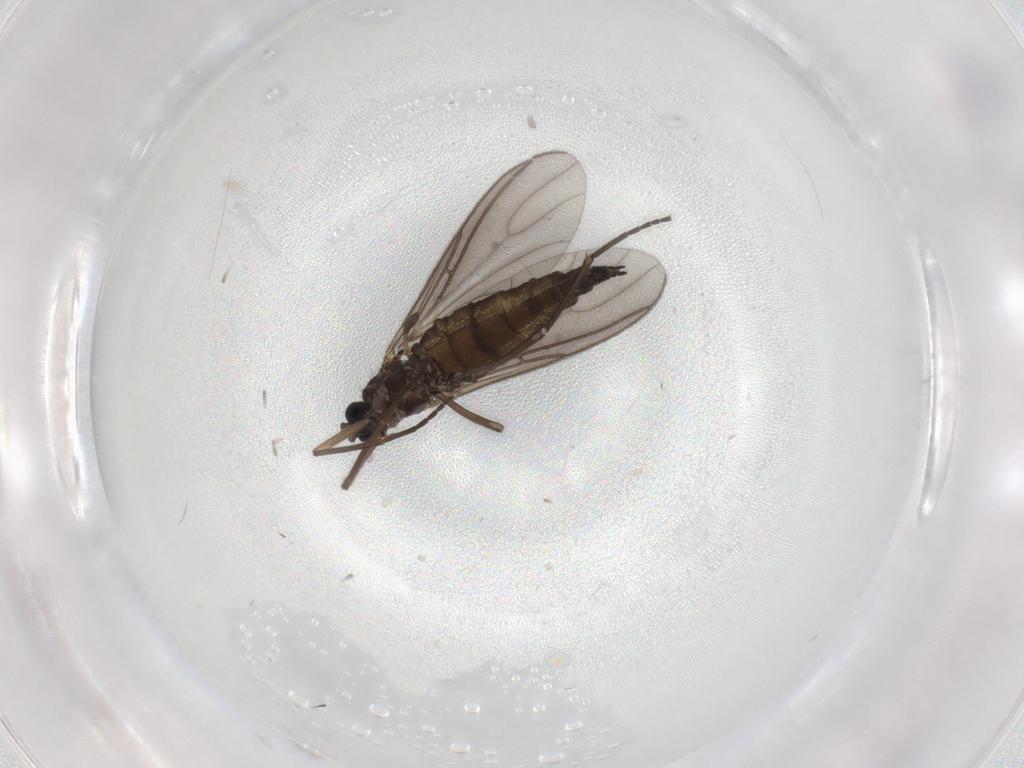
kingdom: Animalia
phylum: Arthropoda
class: Insecta
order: Diptera
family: Sciaridae
